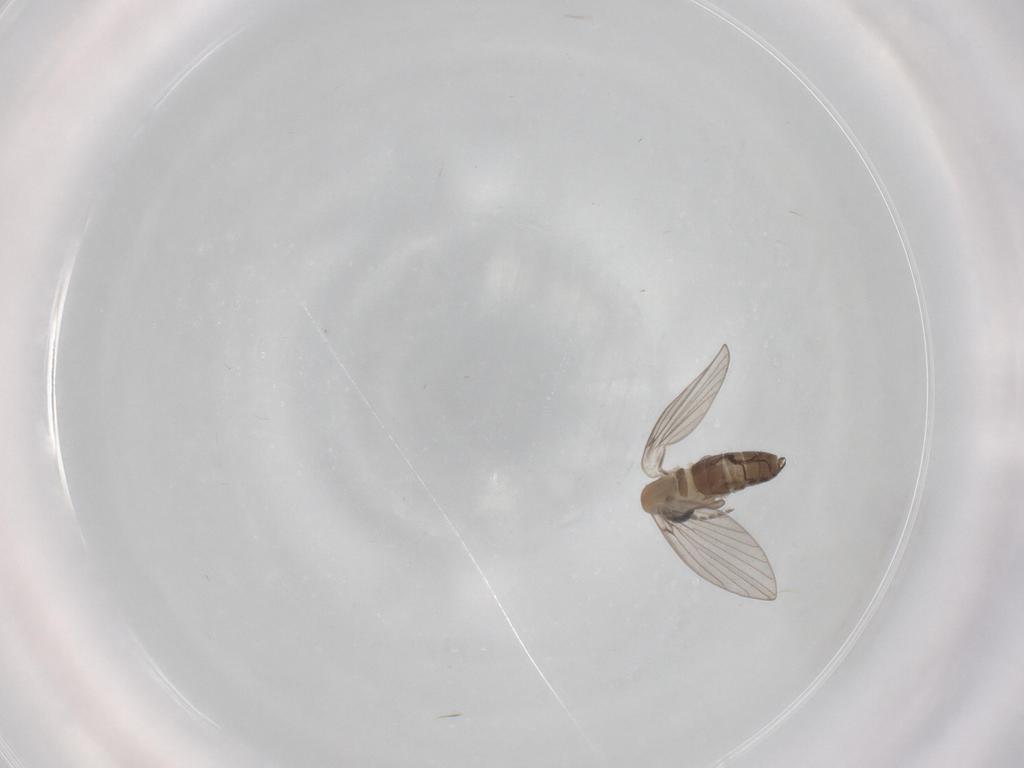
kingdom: Animalia
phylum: Arthropoda
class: Insecta
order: Diptera
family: Psychodidae
